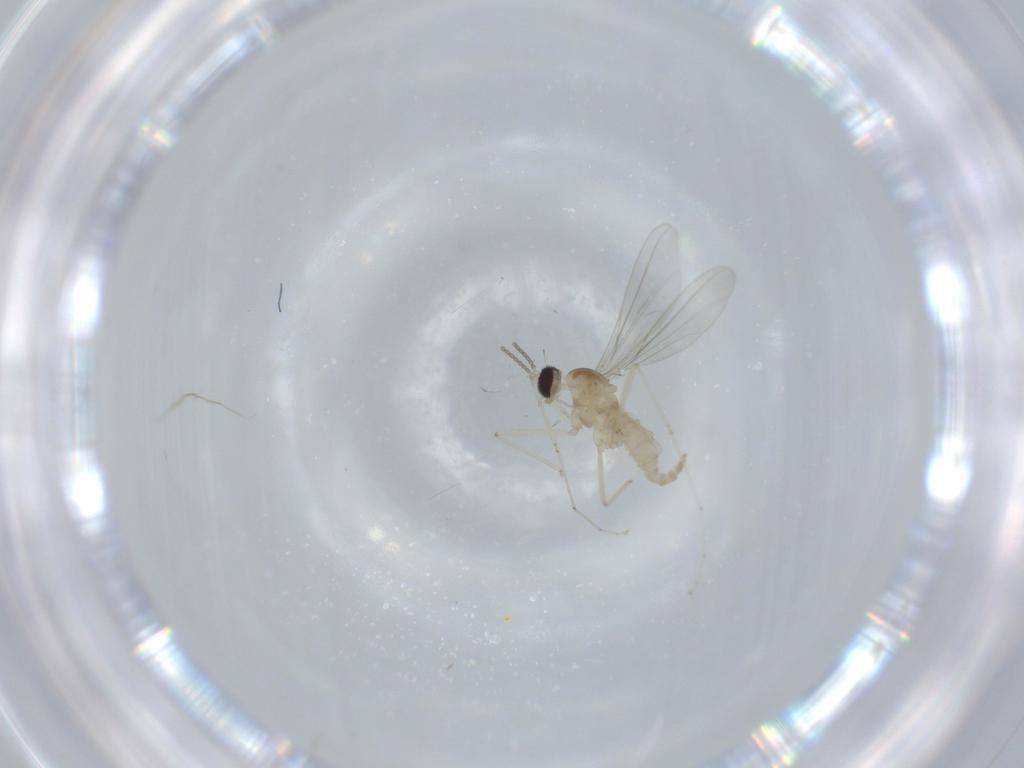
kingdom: Animalia
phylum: Arthropoda
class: Insecta
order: Diptera
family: Cecidomyiidae
